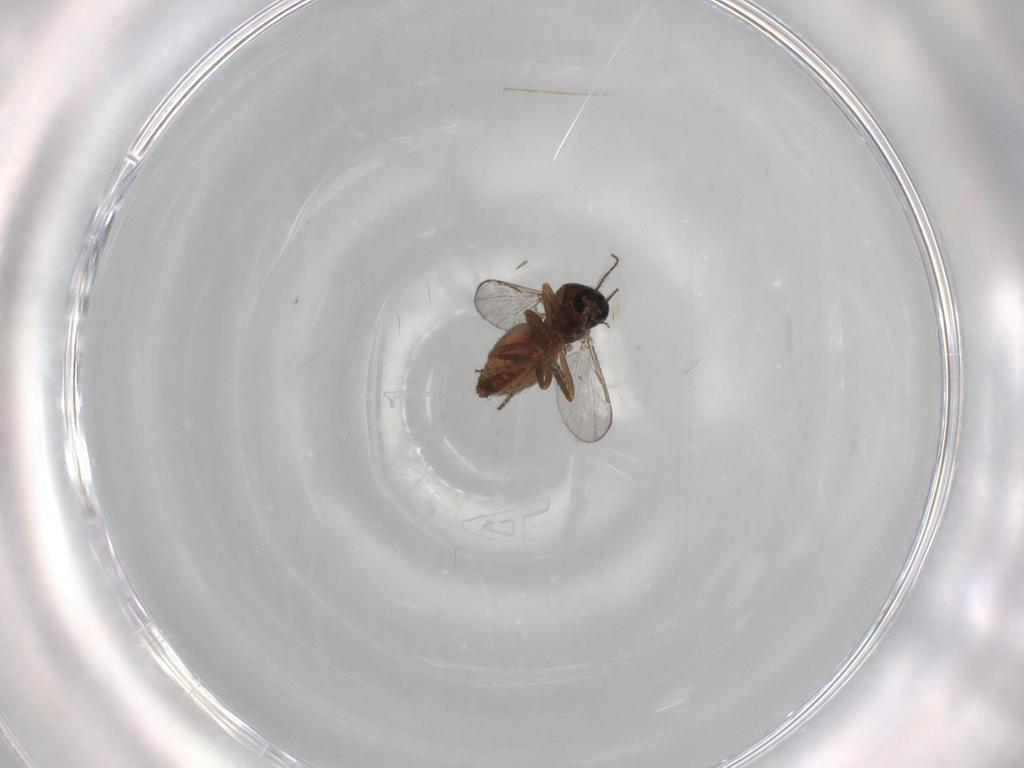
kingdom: Animalia
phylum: Arthropoda
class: Insecta
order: Diptera
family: Ceratopogonidae
